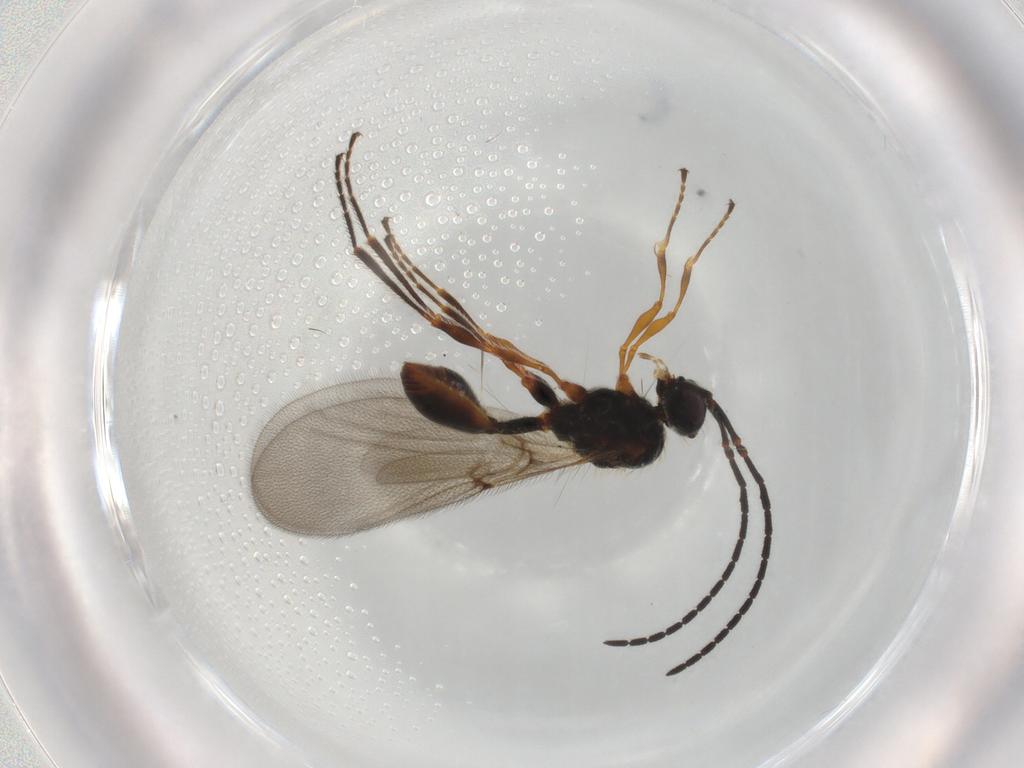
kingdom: Animalia
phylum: Arthropoda
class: Insecta
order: Hymenoptera
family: Diapriidae
